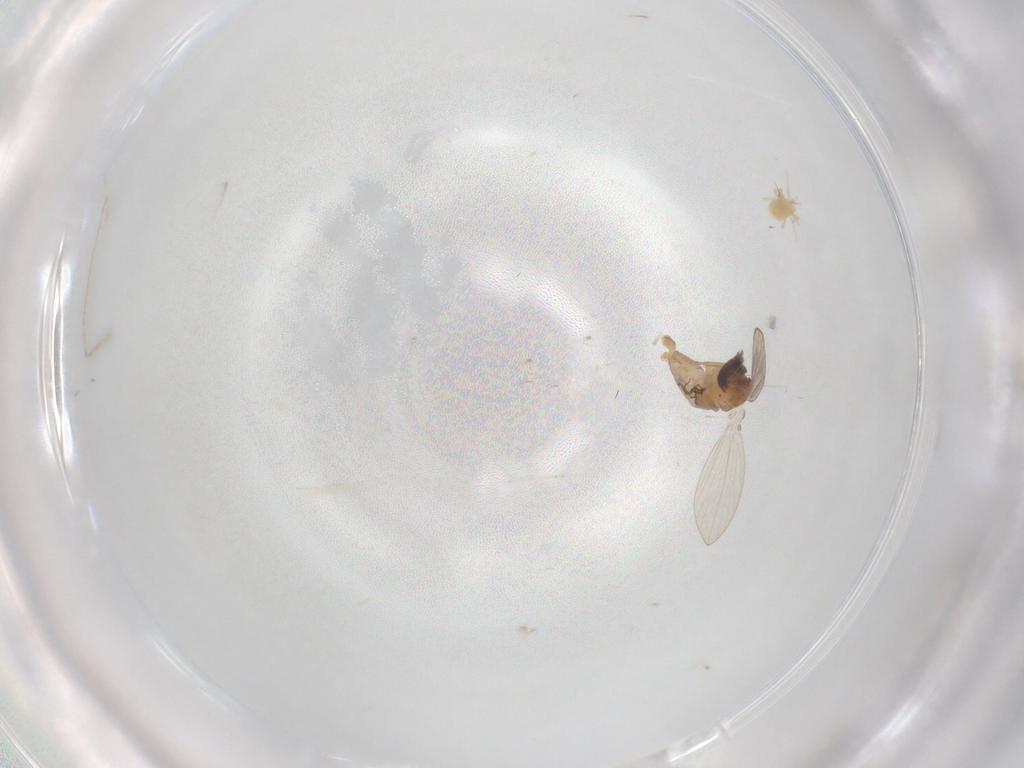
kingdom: Animalia
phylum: Arthropoda
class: Insecta
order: Diptera
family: Psychodidae
